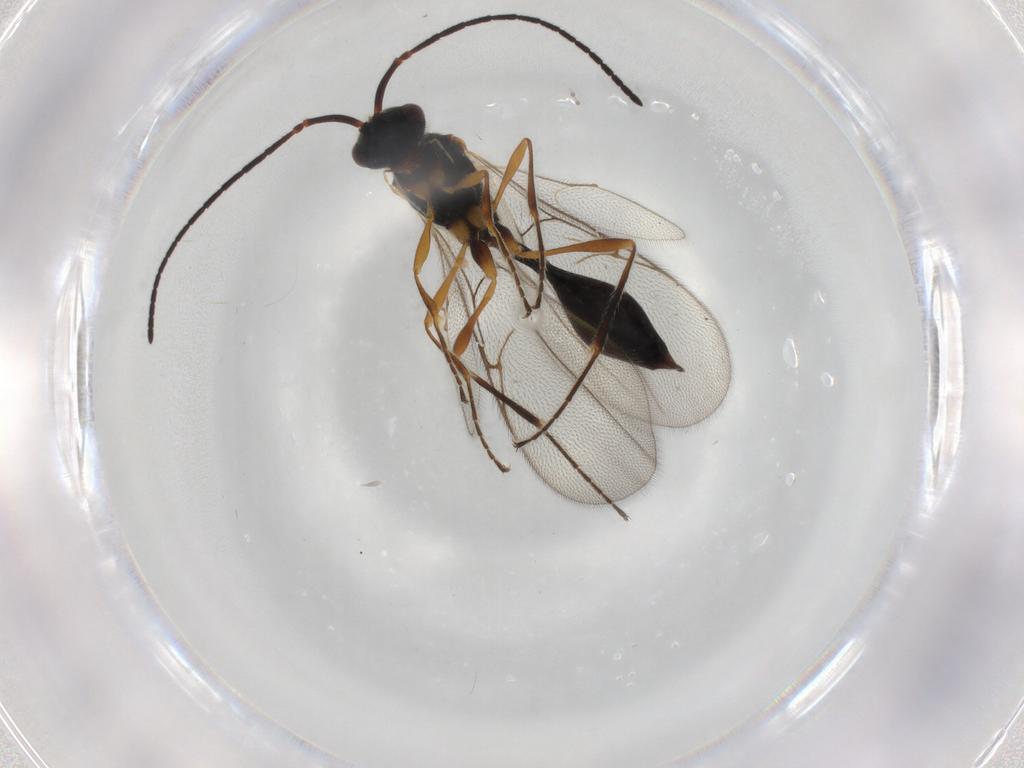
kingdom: Animalia
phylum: Arthropoda
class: Insecta
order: Hymenoptera
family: Diapriidae
